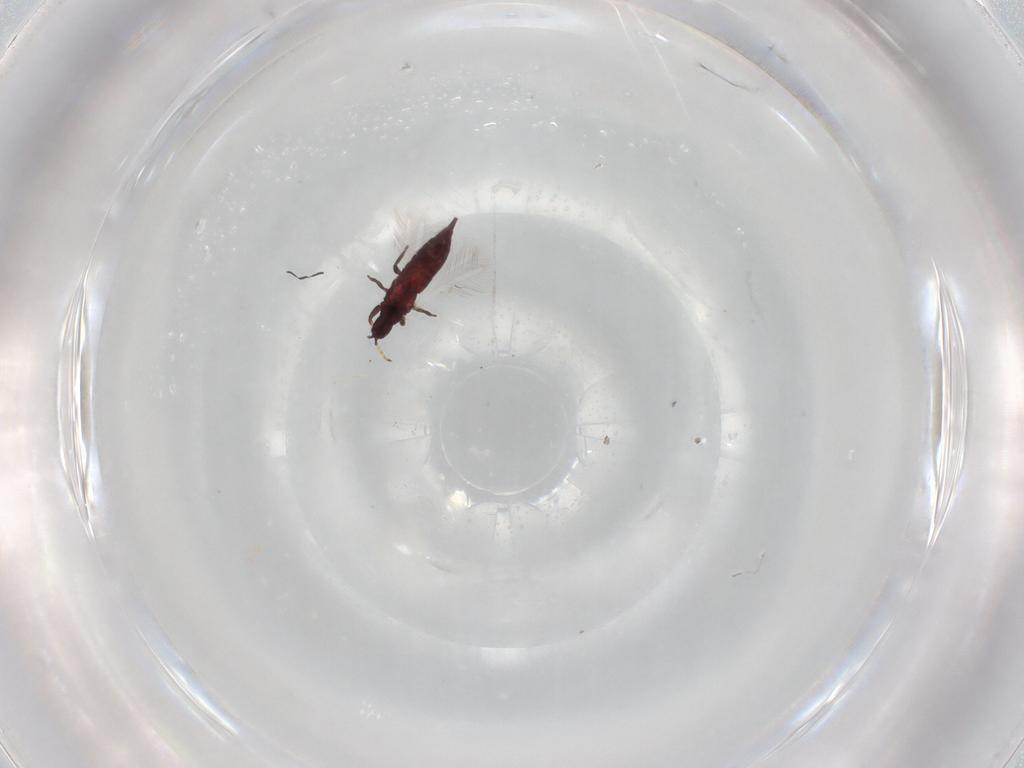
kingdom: Animalia
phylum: Arthropoda
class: Insecta
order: Thysanoptera
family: Phlaeothripidae
